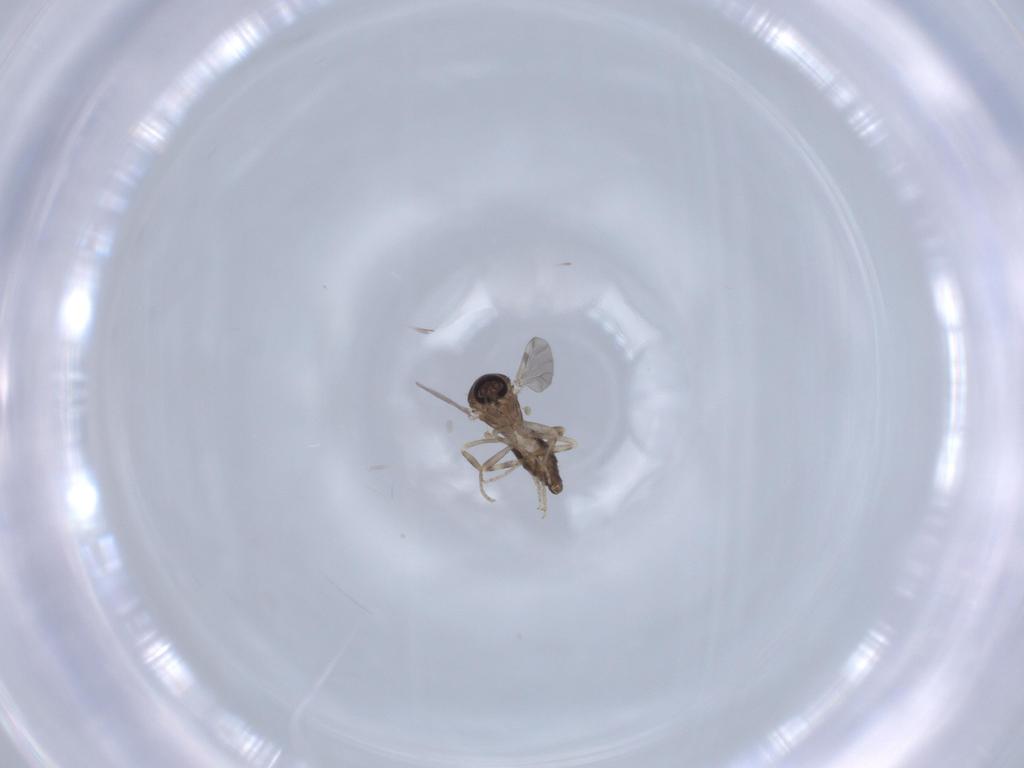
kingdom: Animalia
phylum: Arthropoda
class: Insecta
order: Diptera
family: Ceratopogonidae
